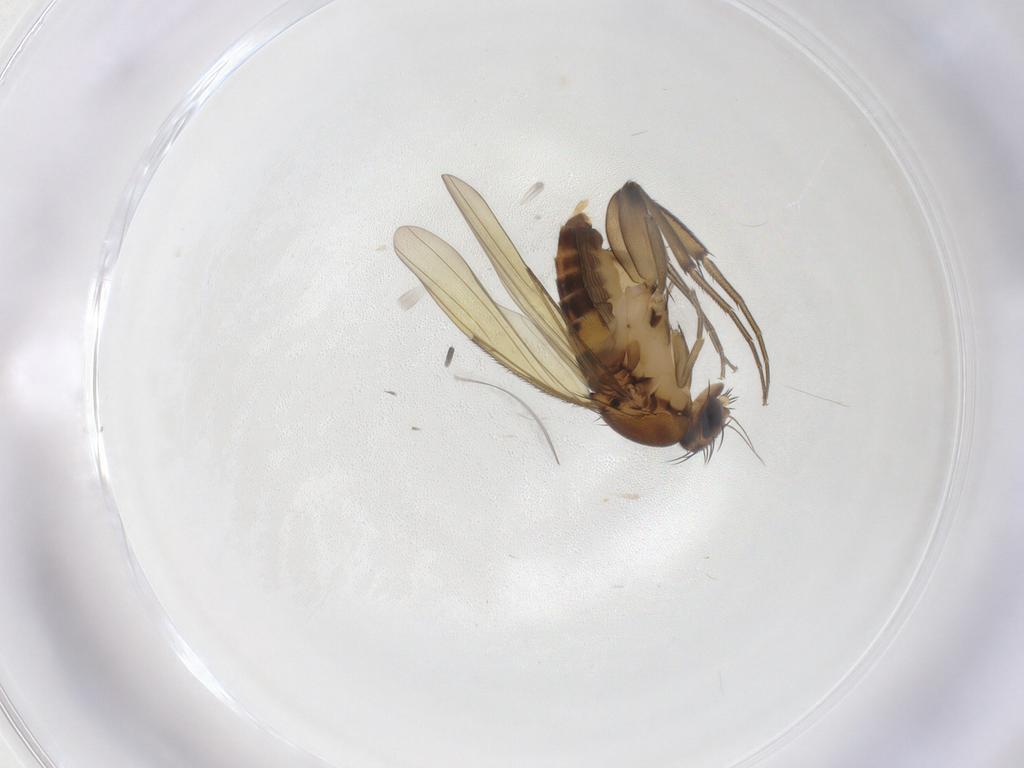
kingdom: Animalia
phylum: Arthropoda
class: Insecta
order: Diptera
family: Phoridae
